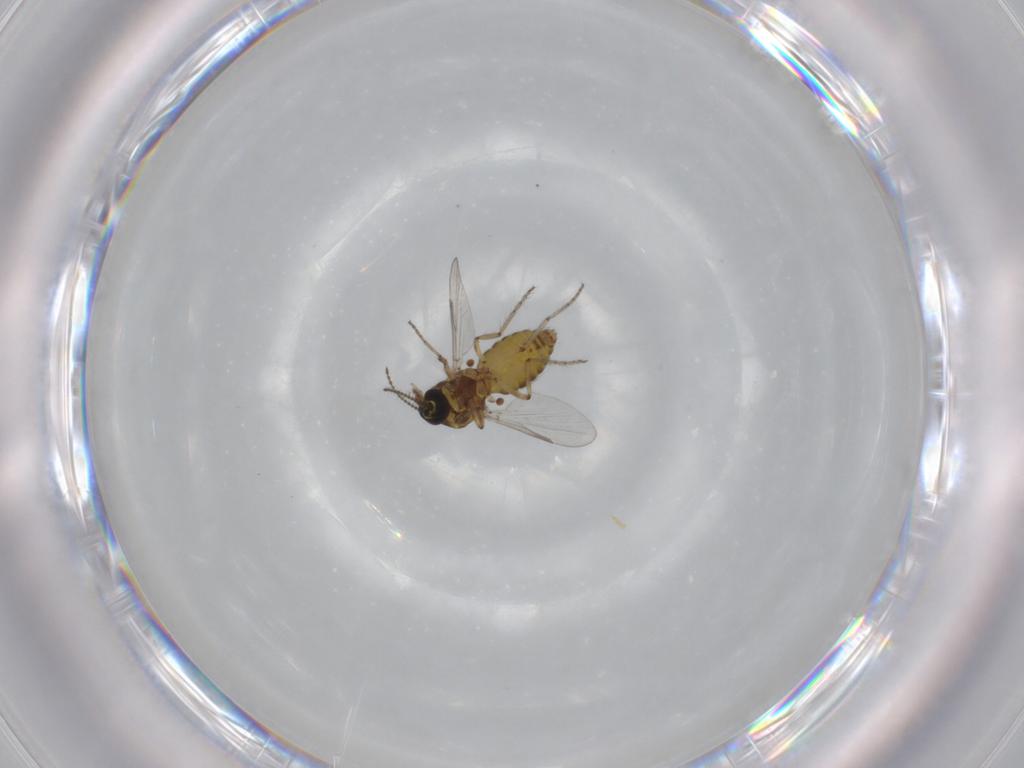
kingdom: Animalia
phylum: Arthropoda
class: Insecta
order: Diptera
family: Ceratopogonidae
